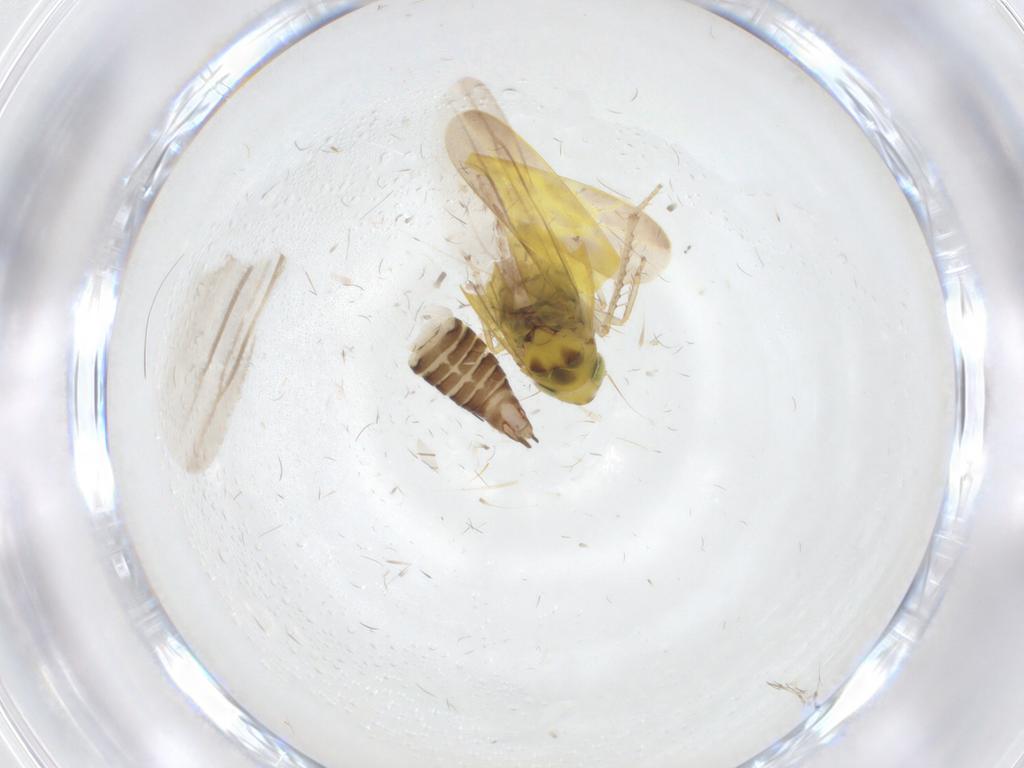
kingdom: Animalia
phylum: Arthropoda
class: Insecta
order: Hemiptera
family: Cicadellidae
